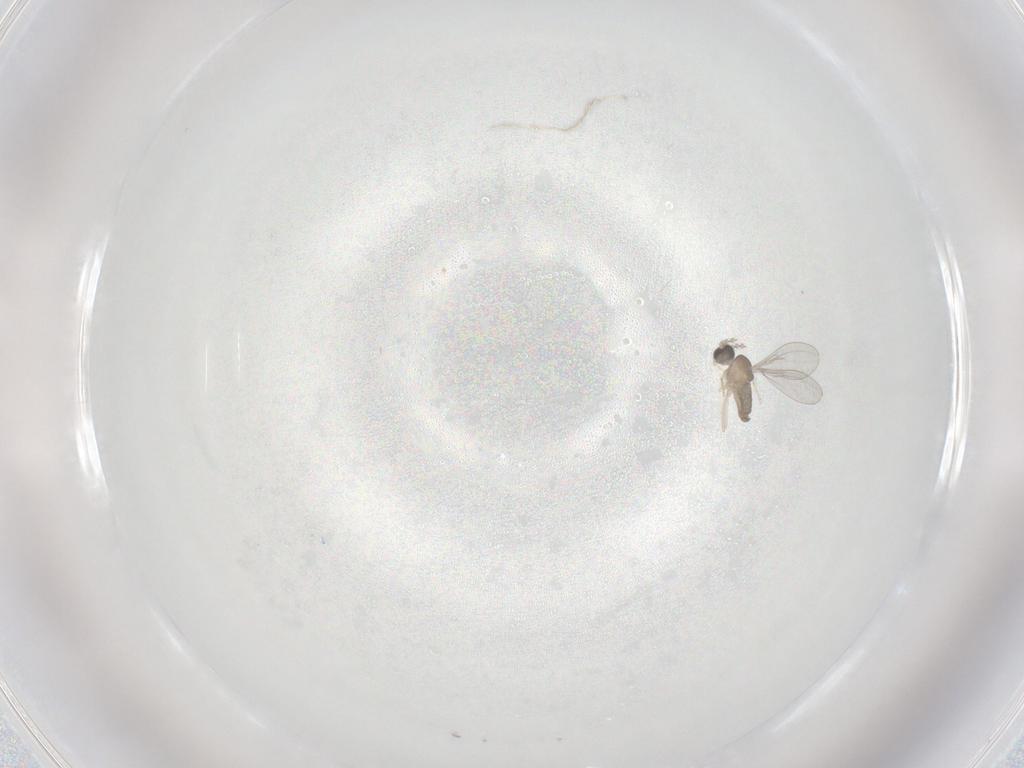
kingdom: Animalia
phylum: Arthropoda
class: Insecta
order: Diptera
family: Cecidomyiidae
